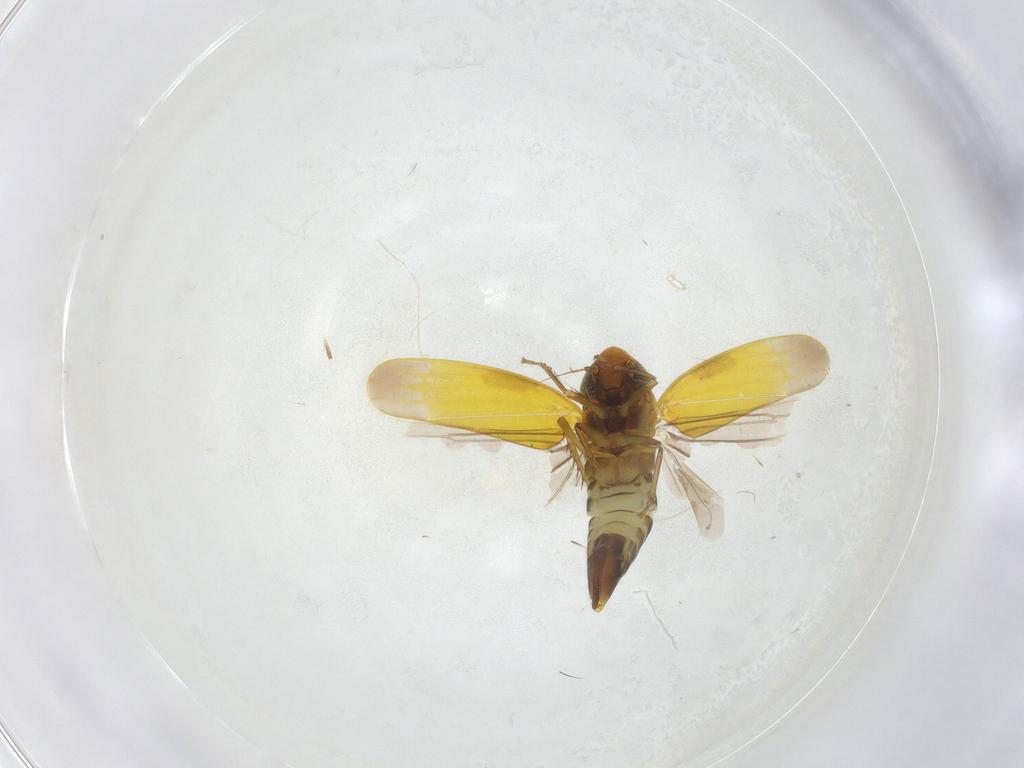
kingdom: Animalia
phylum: Arthropoda
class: Insecta
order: Hemiptera
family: Cicadellidae
